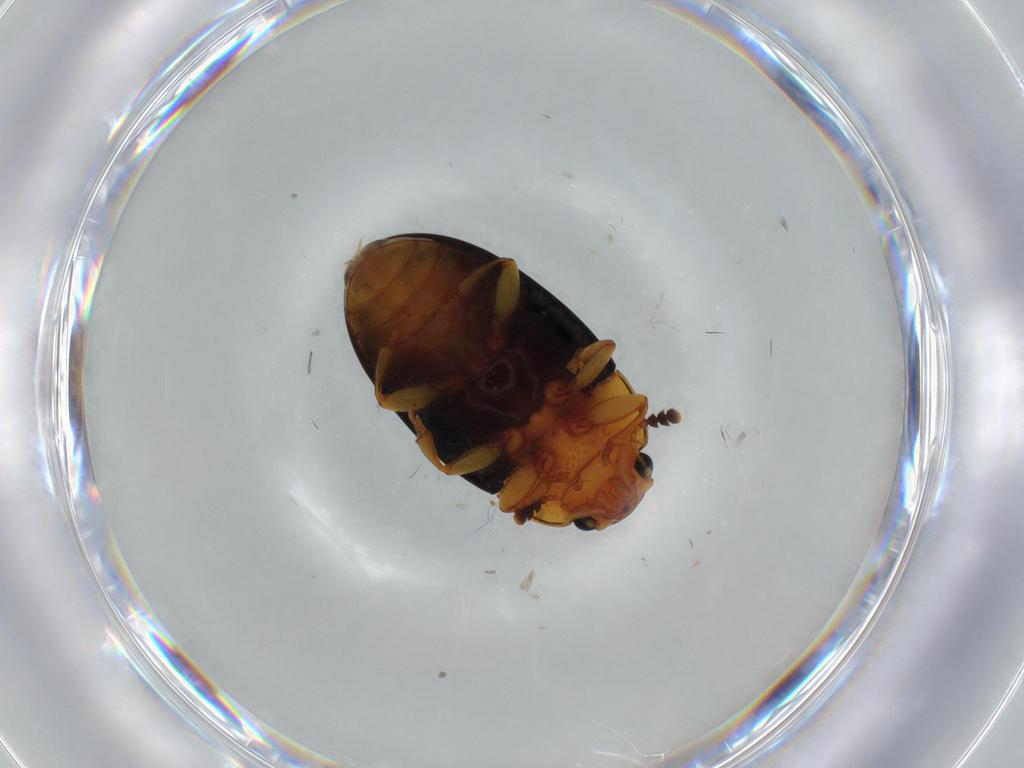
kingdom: Animalia
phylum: Arthropoda
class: Insecta
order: Coleoptera
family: Erotylidae
